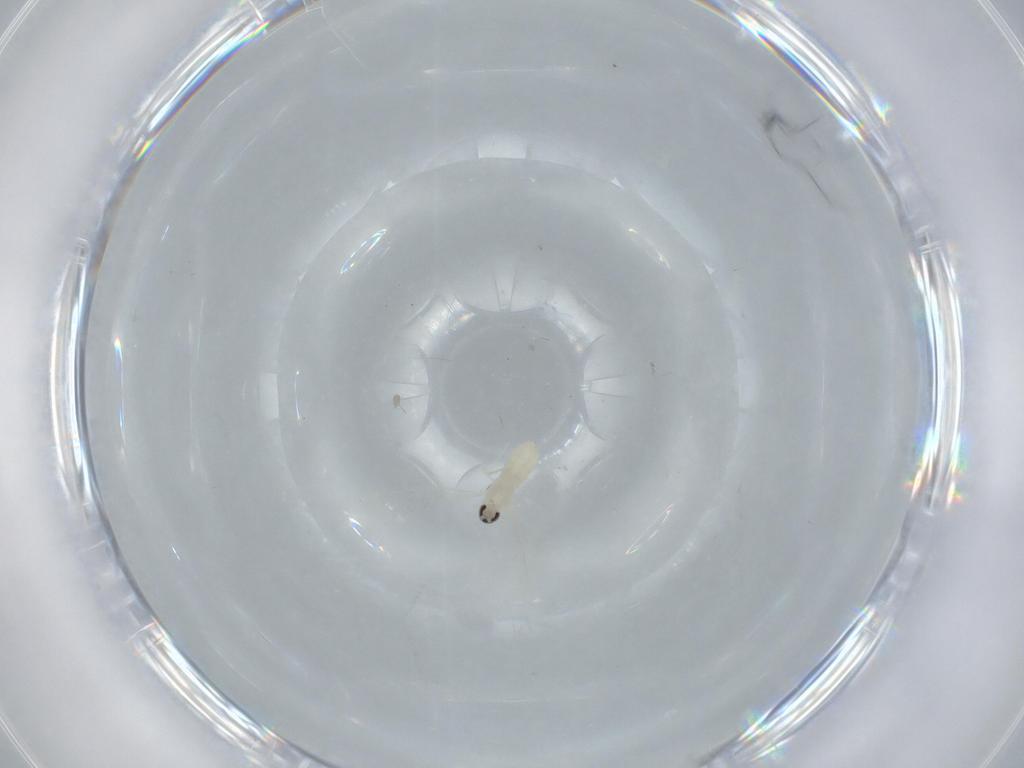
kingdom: Animalia
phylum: Arthropoda
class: Insecta
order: Diptera
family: Cecidomyiidae
